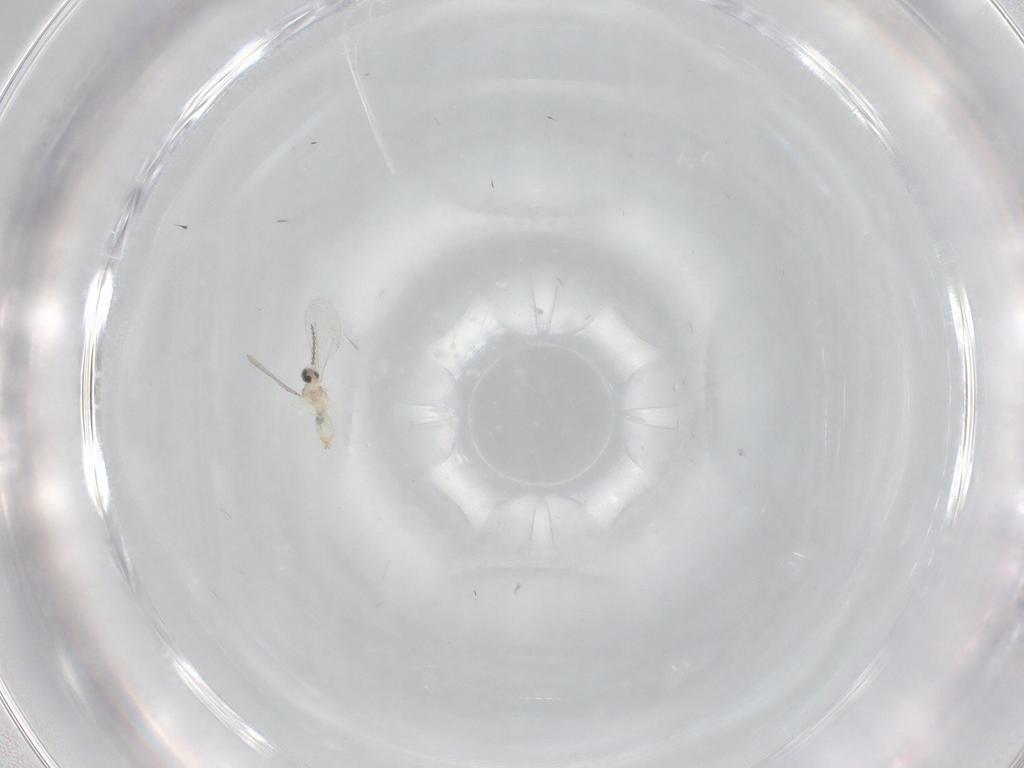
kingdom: Animalia
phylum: Arthropoda
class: Insecta
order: Diptera
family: Cecidomyiidae
